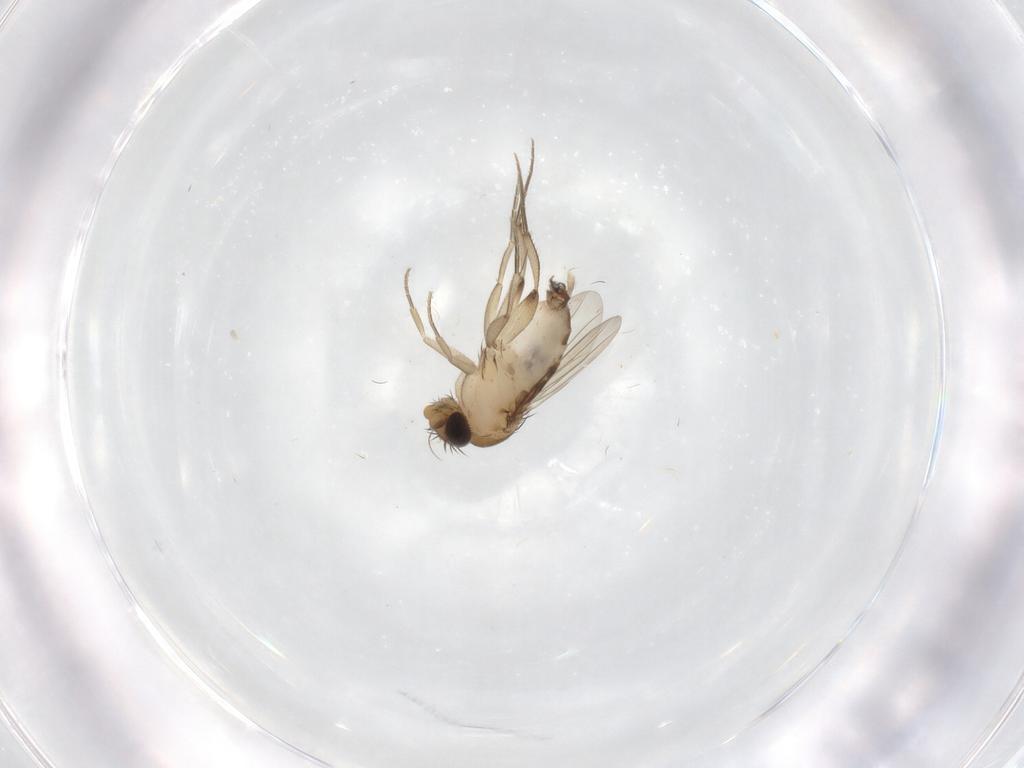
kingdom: Animalia
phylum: Arthropoda
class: Insecta
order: Diptera
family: Phoridae
